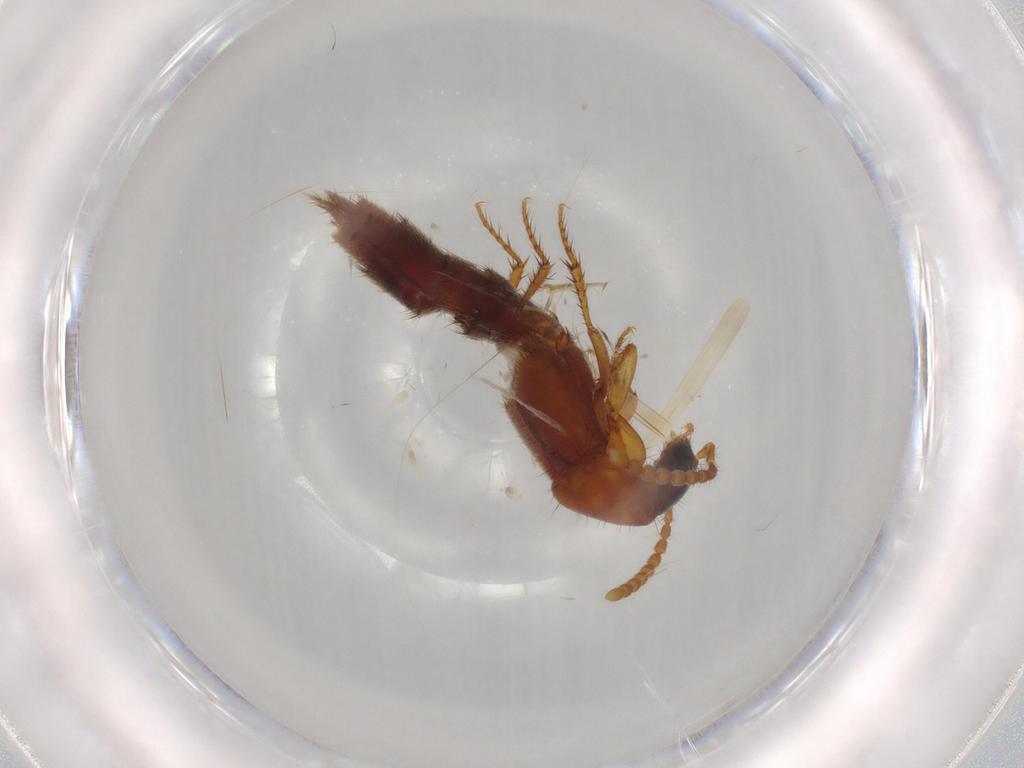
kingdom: Animalia
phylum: Arthropoda
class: Insecta
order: Coleoptera
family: Staphylinidae
